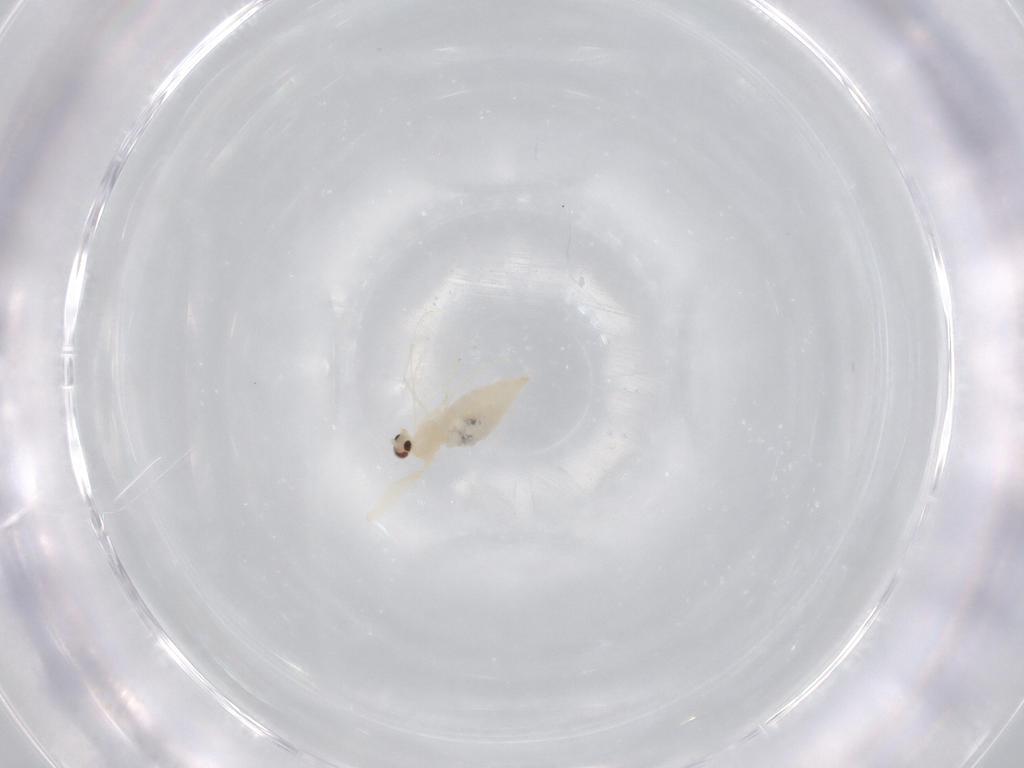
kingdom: Animalia
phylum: Arthropoda
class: Insecta
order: Diptera
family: Cecidomyiidae
